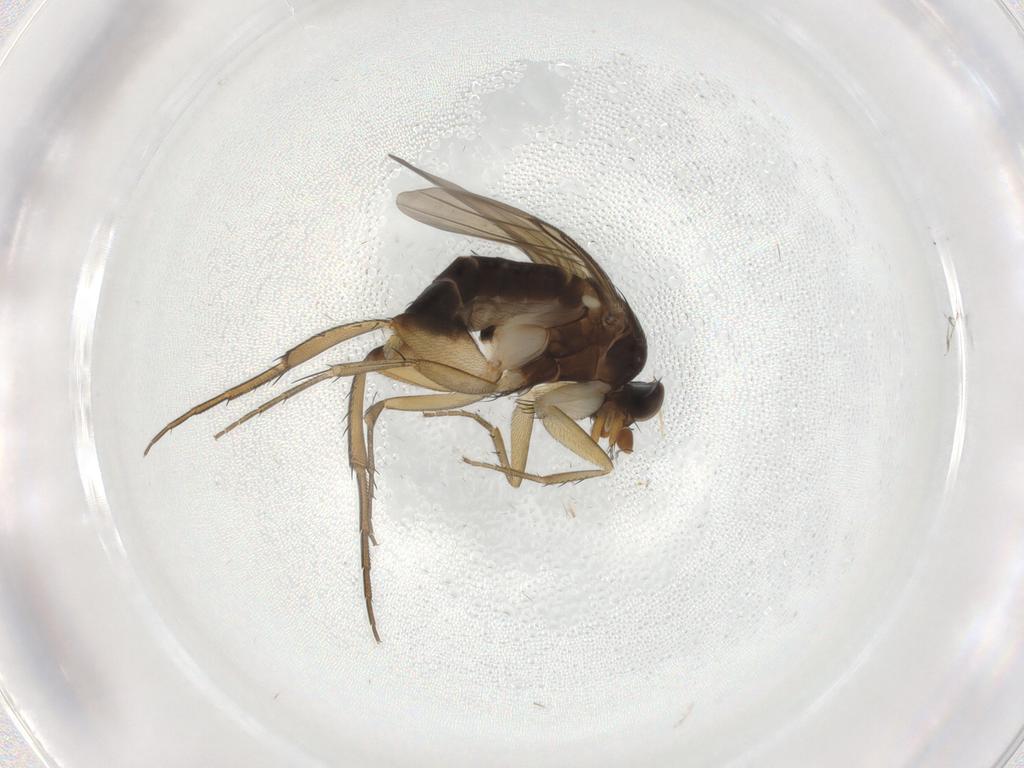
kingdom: Animalia
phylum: Arthropoda
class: Insecta
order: Diptera
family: Phoridae
